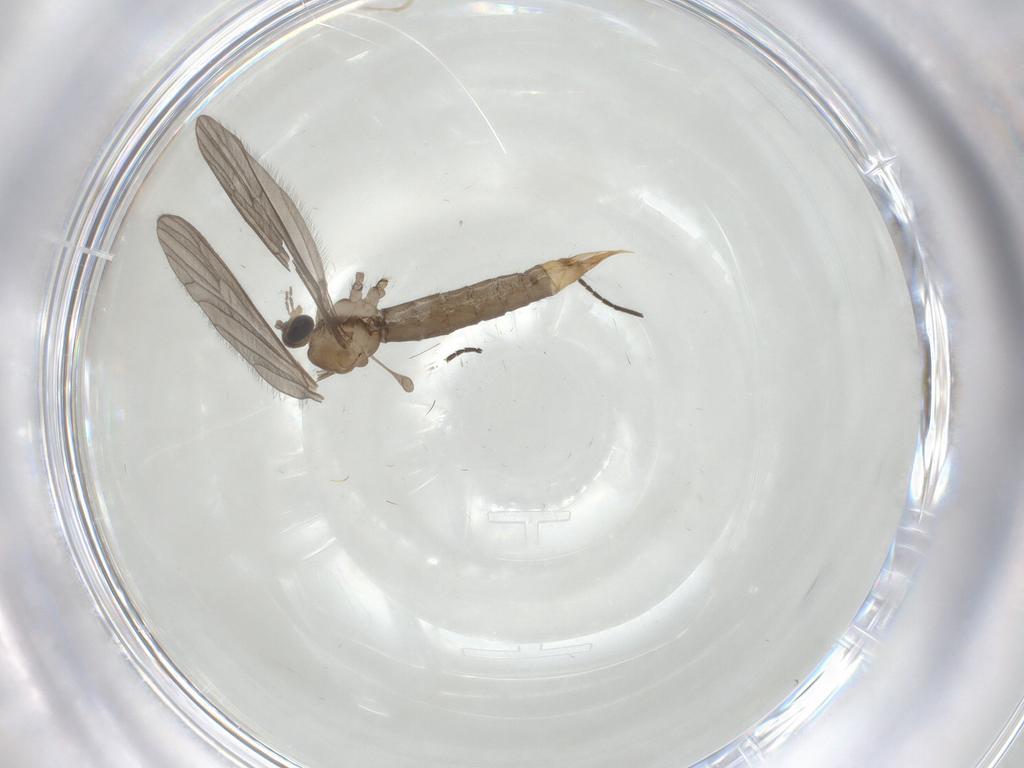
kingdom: Animalia
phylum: Arthropoda
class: Insecta
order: Diptera
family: Limoniidae
